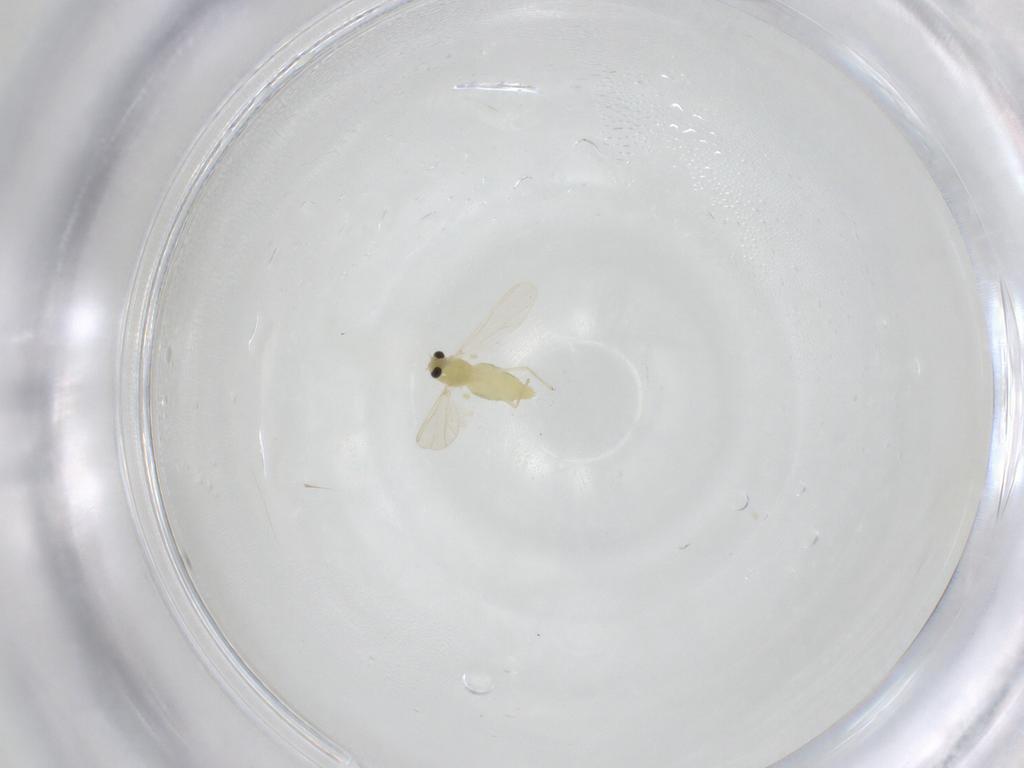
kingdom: Animalia
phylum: Arthropoda
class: Insecta
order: Diptera
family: Chironomidae
